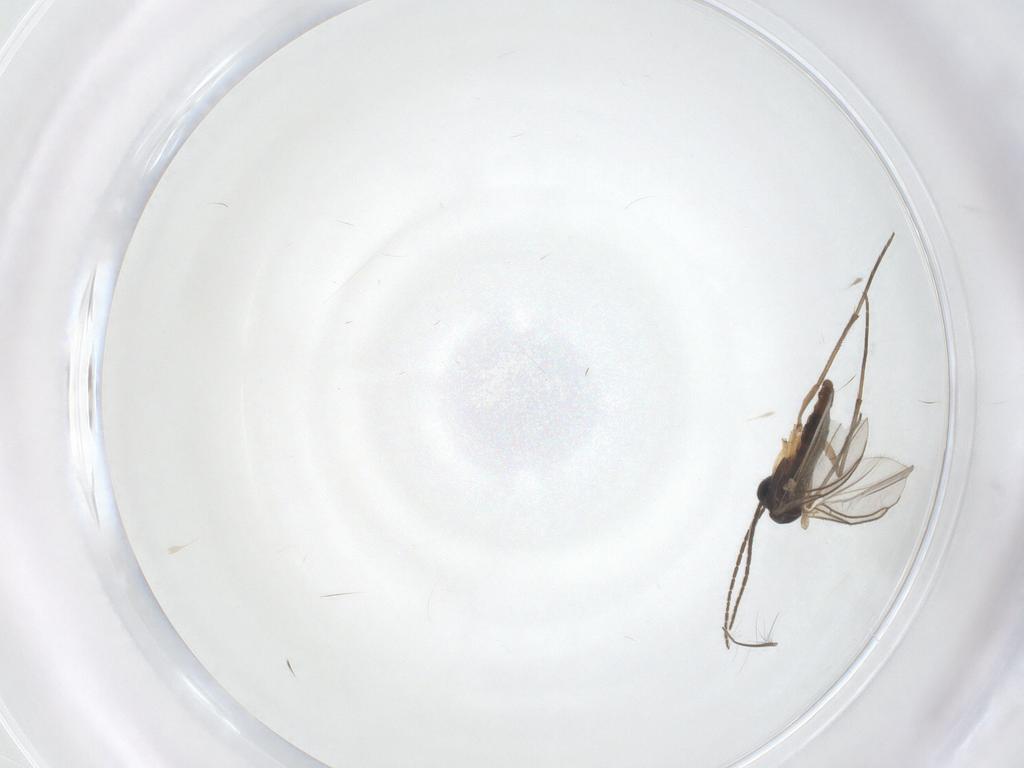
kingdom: Animalia
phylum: Arthropoda
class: Insecta
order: Diptera
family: Sciaridae
